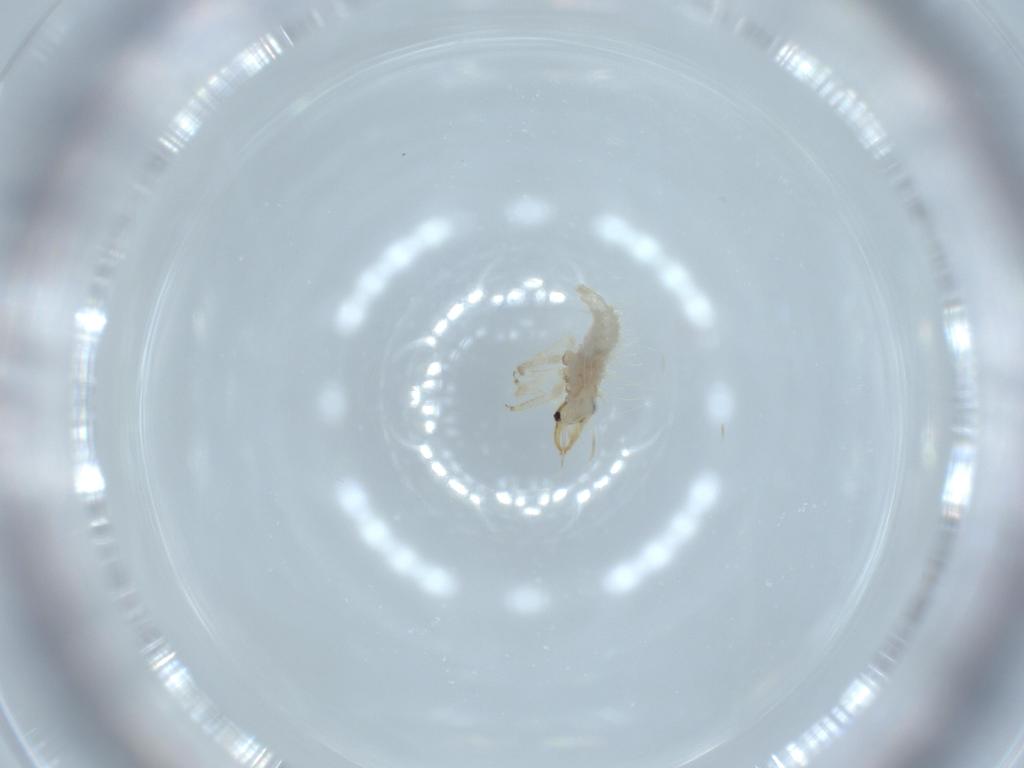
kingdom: Animalia
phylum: Arthropoda
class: Insecta
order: Neuroptera
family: Chrysopidae
